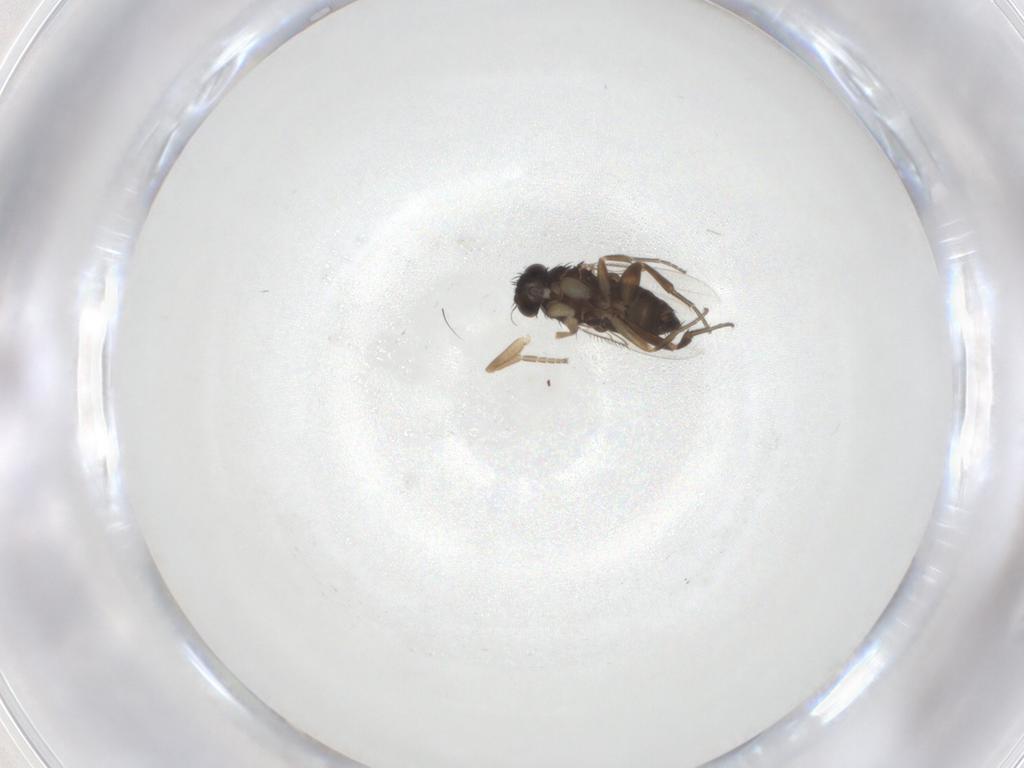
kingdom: Animalia
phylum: Arthropoda
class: Insecta
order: Diptera
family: Phoridae
